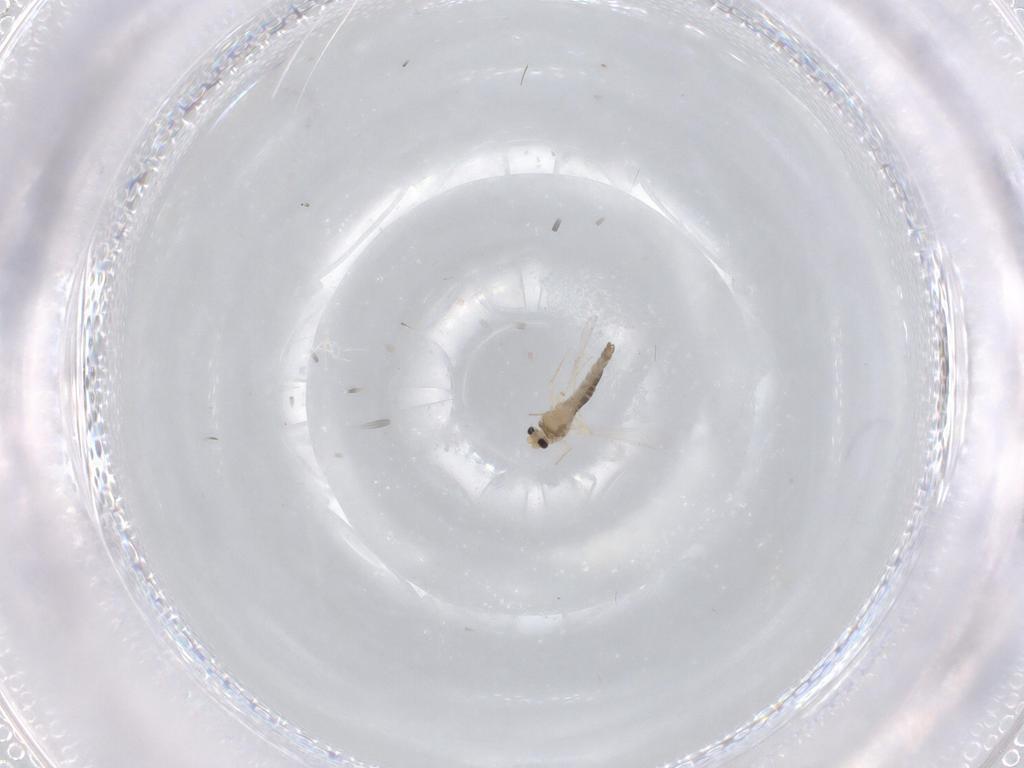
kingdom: Animalia
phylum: Arthropoda
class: Insecta
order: Diptera
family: Chironomidae
